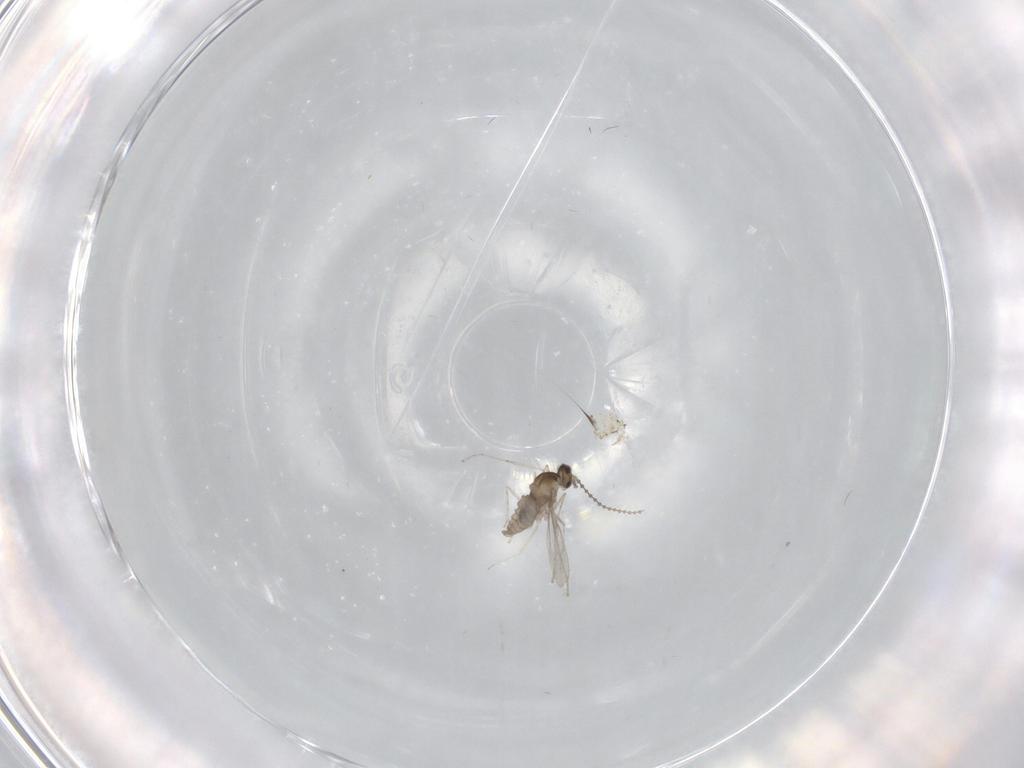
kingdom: Animalia
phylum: Arthropoda
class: Insecta
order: Diptera
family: Cecidomyiidae
